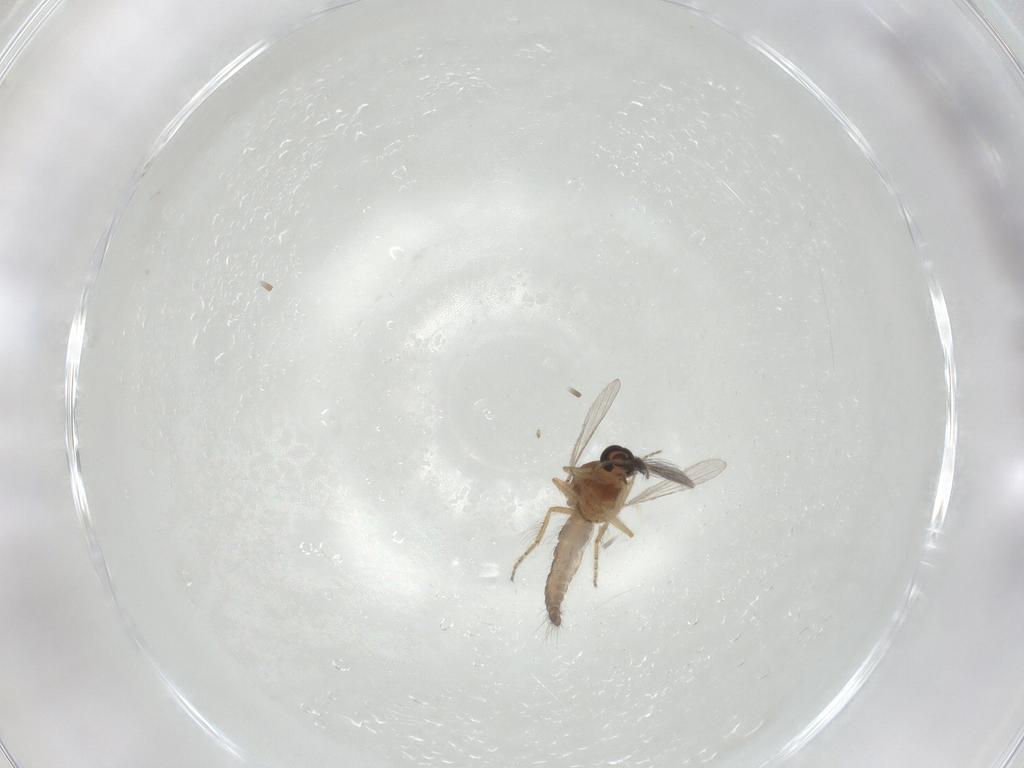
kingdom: Animalia
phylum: Arthropoda
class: Insecta
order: Diptera
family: Ceratopogonidae
